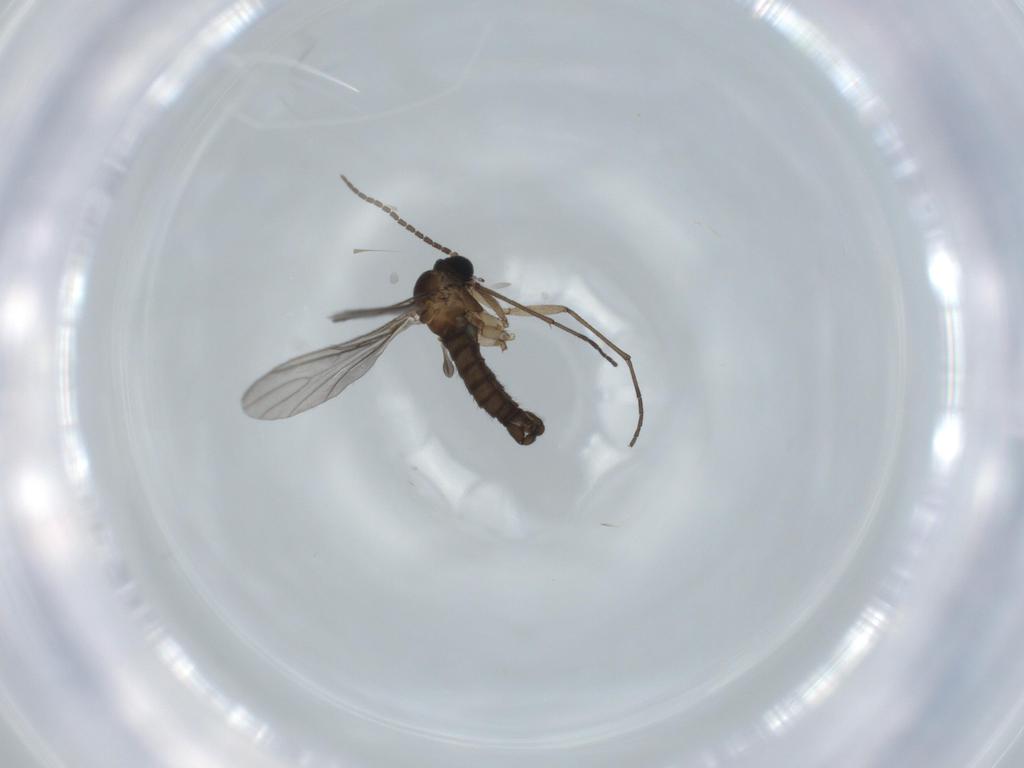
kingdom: Animalia
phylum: Arthropoda
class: Insecta
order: Diptera
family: Sciaridae
